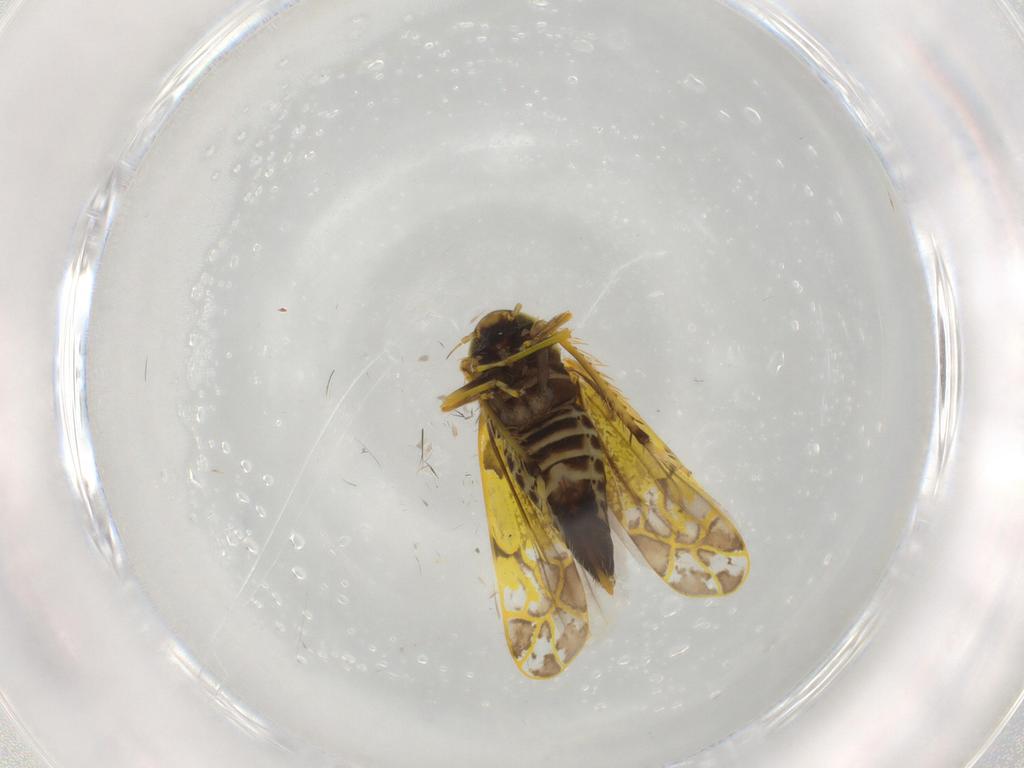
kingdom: Animalia
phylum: Arthropoda
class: Insecta
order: Hemiptera
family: Cicadellidae
